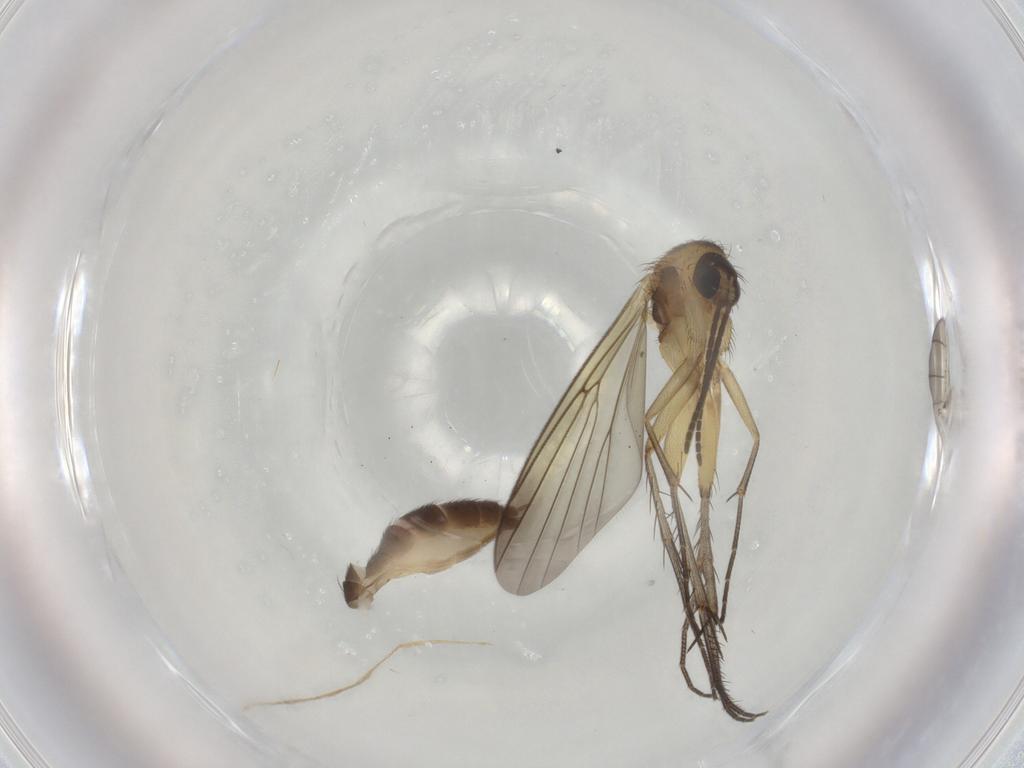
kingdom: Animalia
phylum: Arthropoda
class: Insecta
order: Diptera
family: Mycetophilidae
